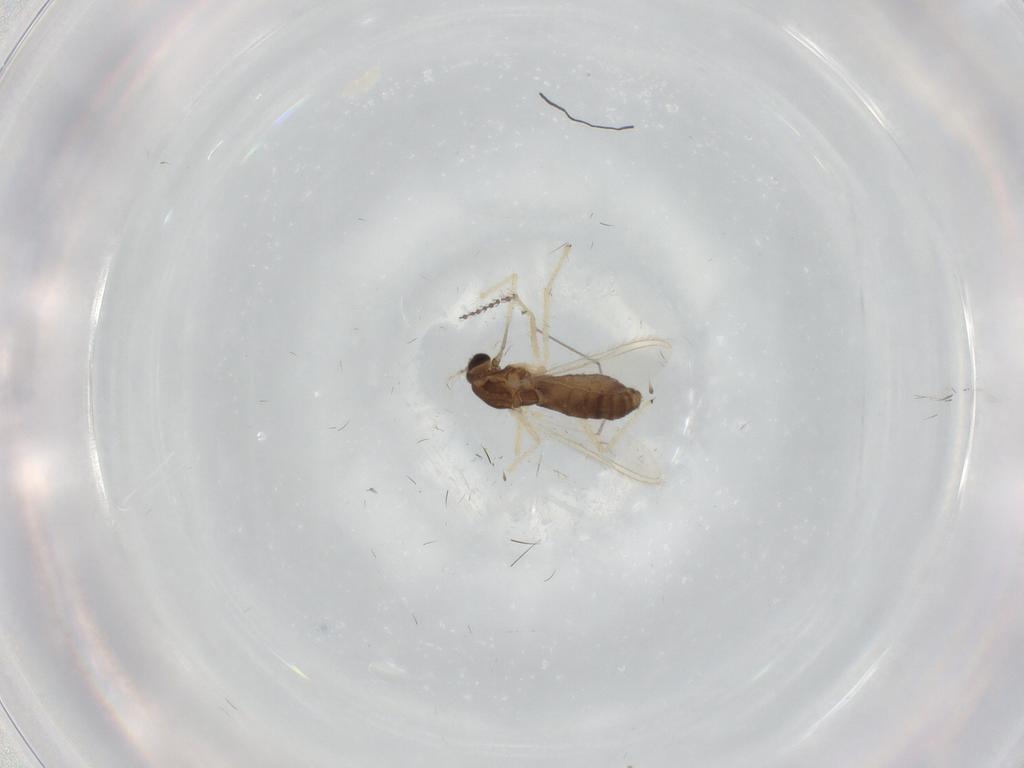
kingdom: Animalia
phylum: Arthropoda
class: Insecta
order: Diptera
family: Chironomidae
